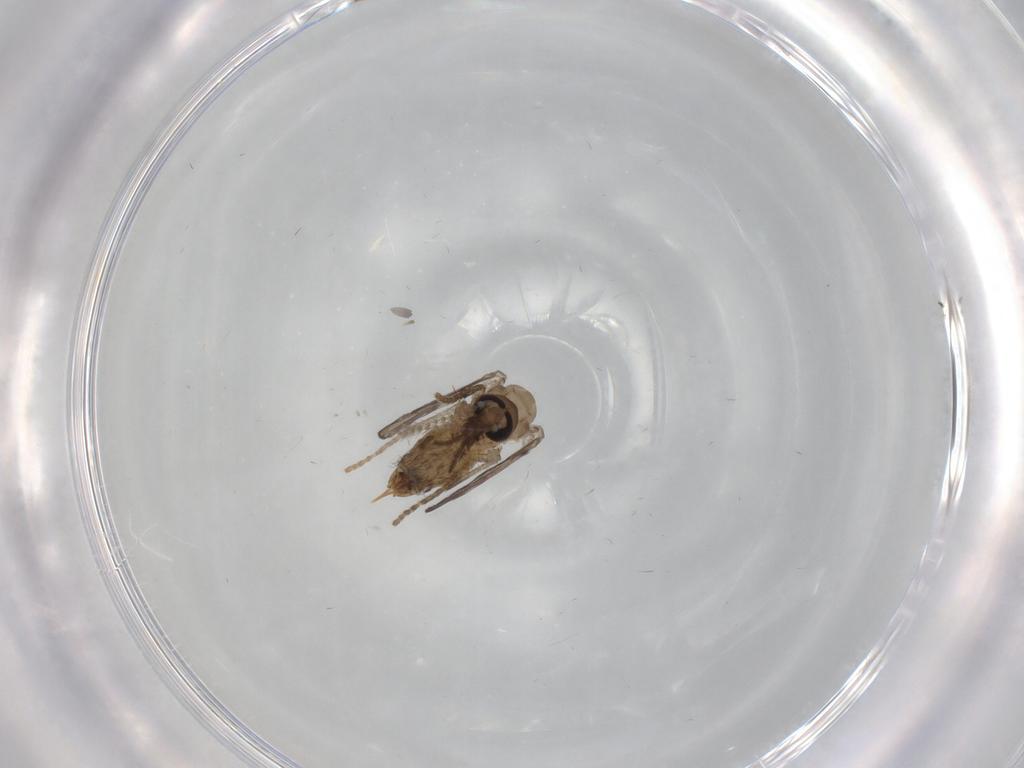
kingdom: Animalia
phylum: Arthropoda
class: Insecta
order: Diptera
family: Psychodidae
